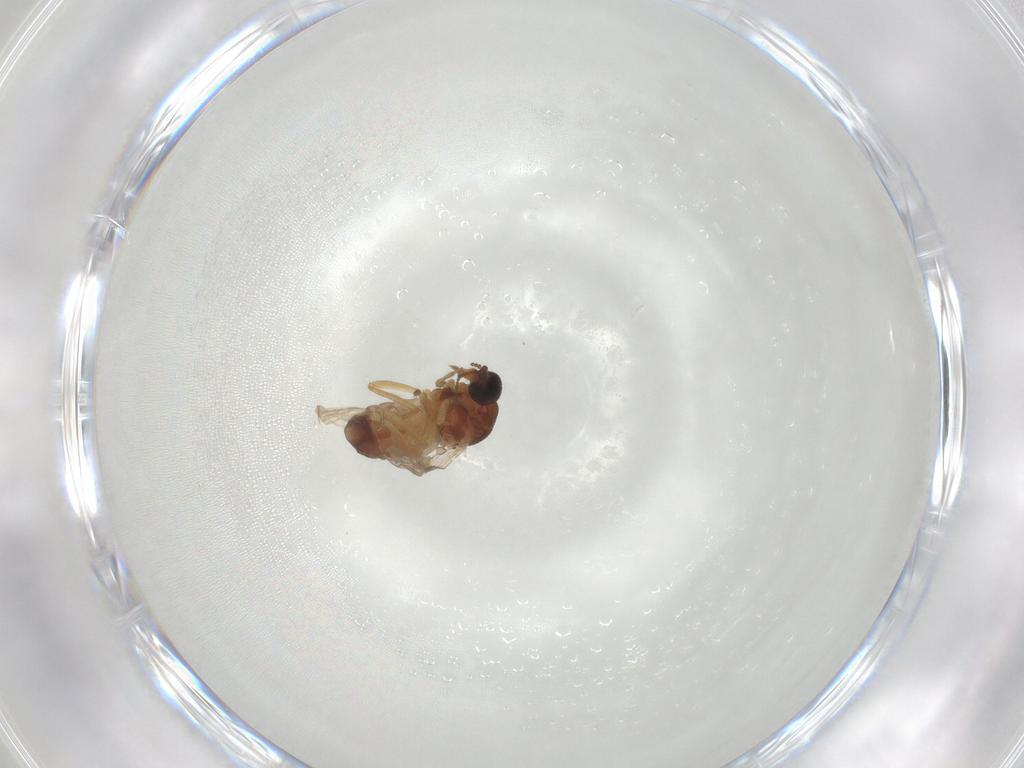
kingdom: Animalia
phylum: Arthropoda
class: Insecta
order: Diptera
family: Ceratopogonidae
